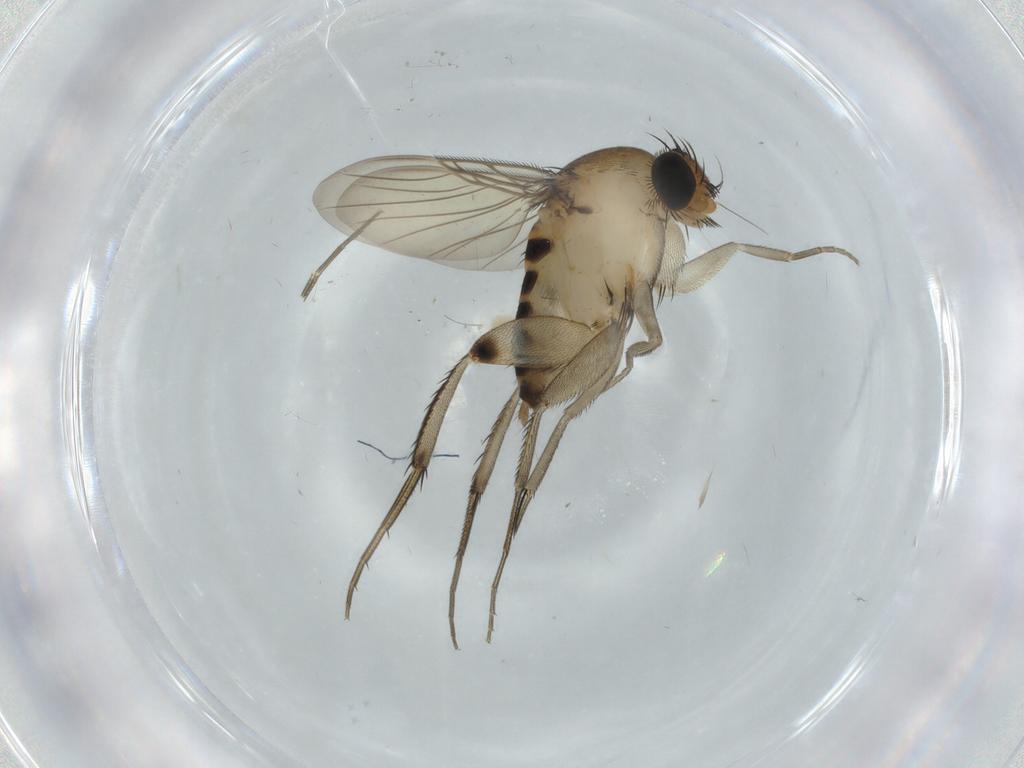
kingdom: Animalia
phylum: Arthropoda
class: Insecta
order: Diptera
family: Phoridae
